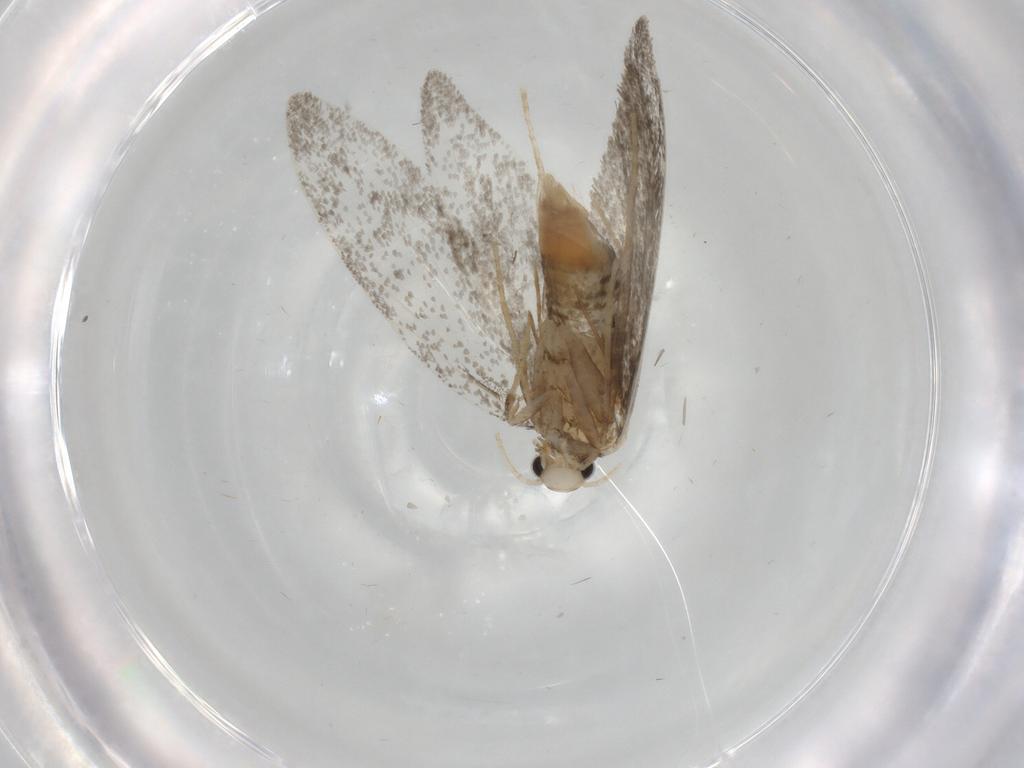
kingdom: Animalia
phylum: Arthropoda
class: Insecta
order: Lepidoptera
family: Psychidae
